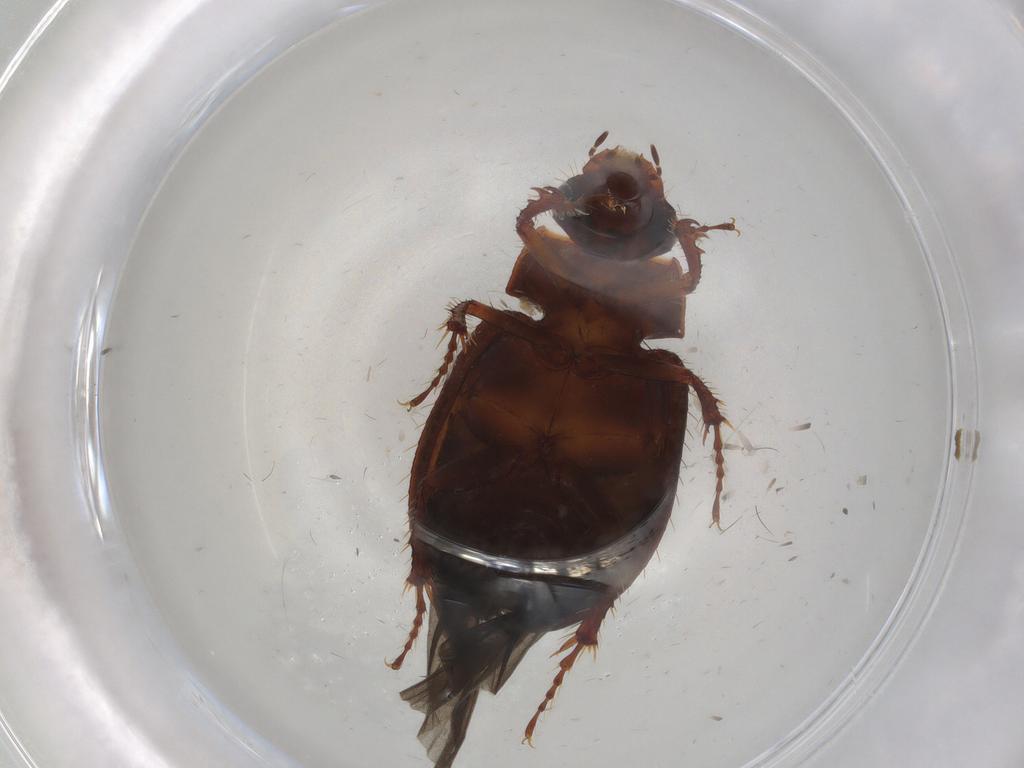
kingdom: Animalia
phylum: Arthropoda
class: Insecta
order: Coleoptera
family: Hybosoridae
